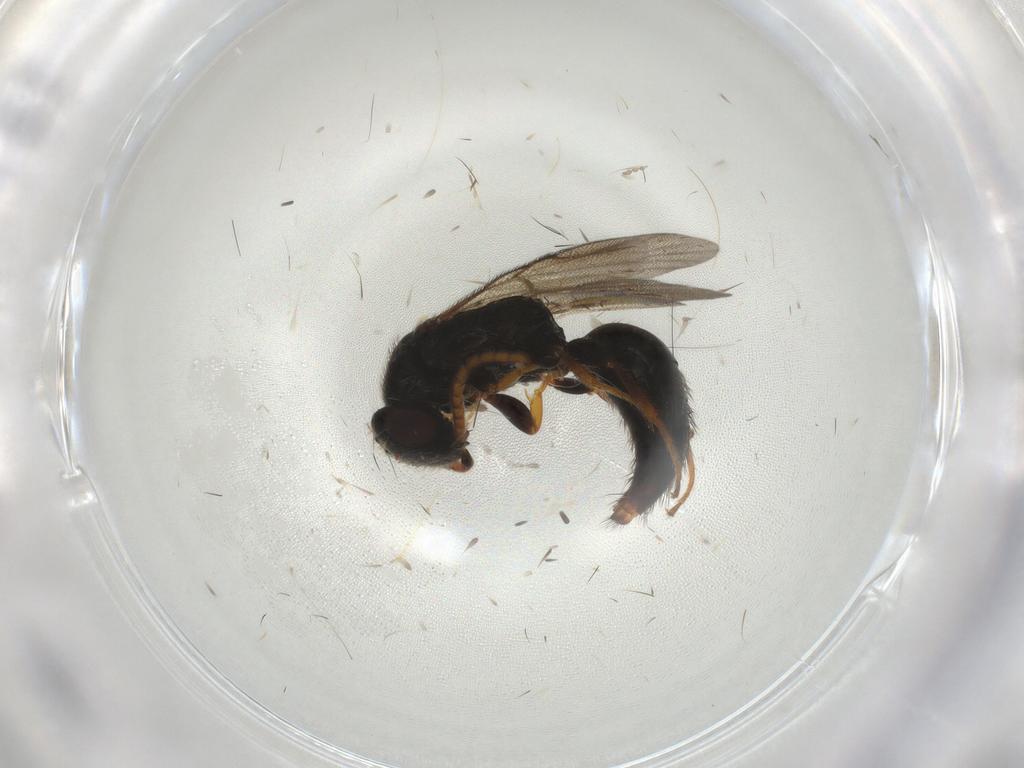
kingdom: Animalia
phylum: Arthropoda
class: Insecta
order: Hymenoptera
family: Bethylidae
